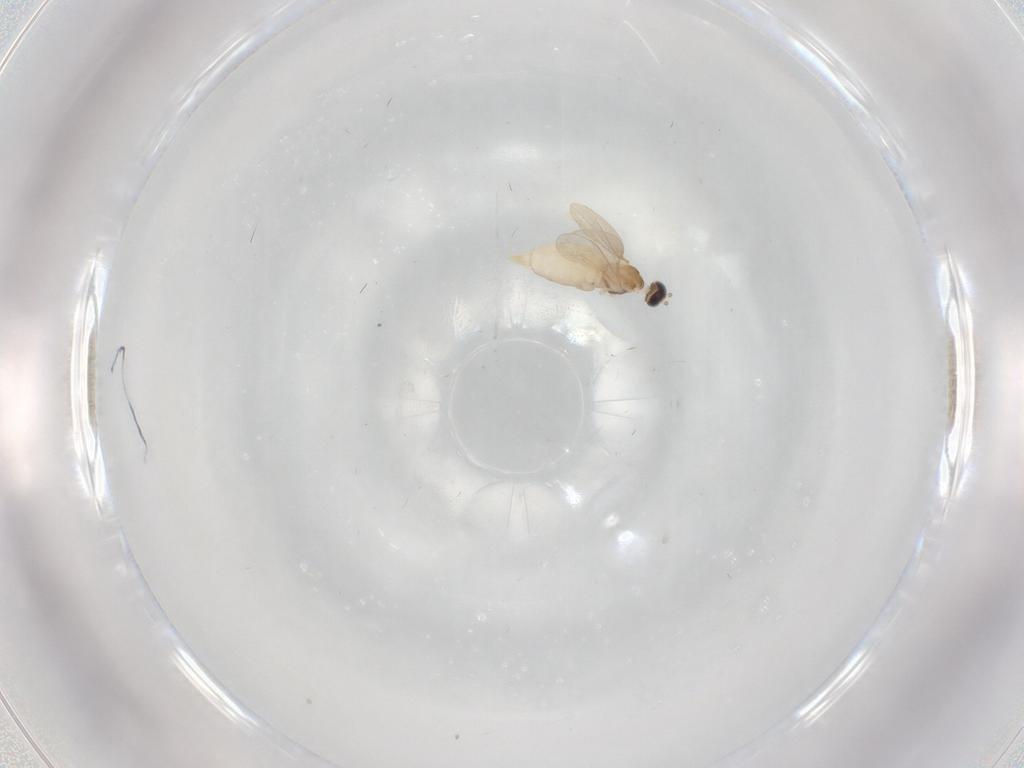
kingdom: Animalia
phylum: Arthropoda
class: Insecta
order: Diptera
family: Cecidomyiidae
